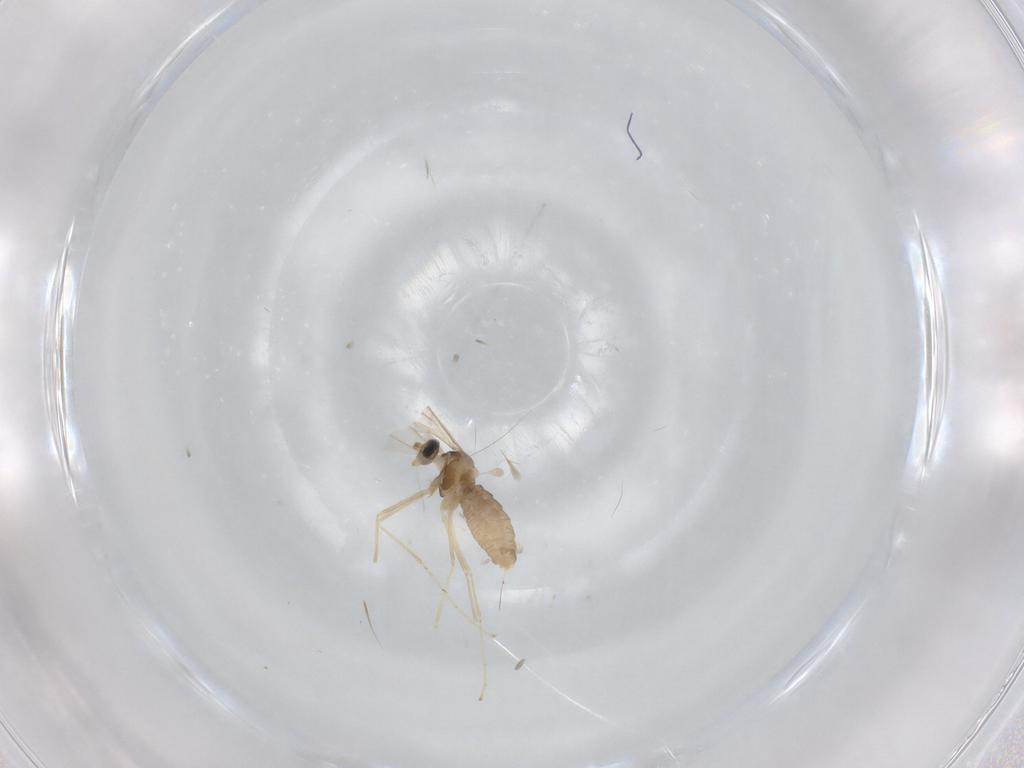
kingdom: Animalia
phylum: Arthropoda
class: Insecta
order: Diptera
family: Cecidomyiidae
